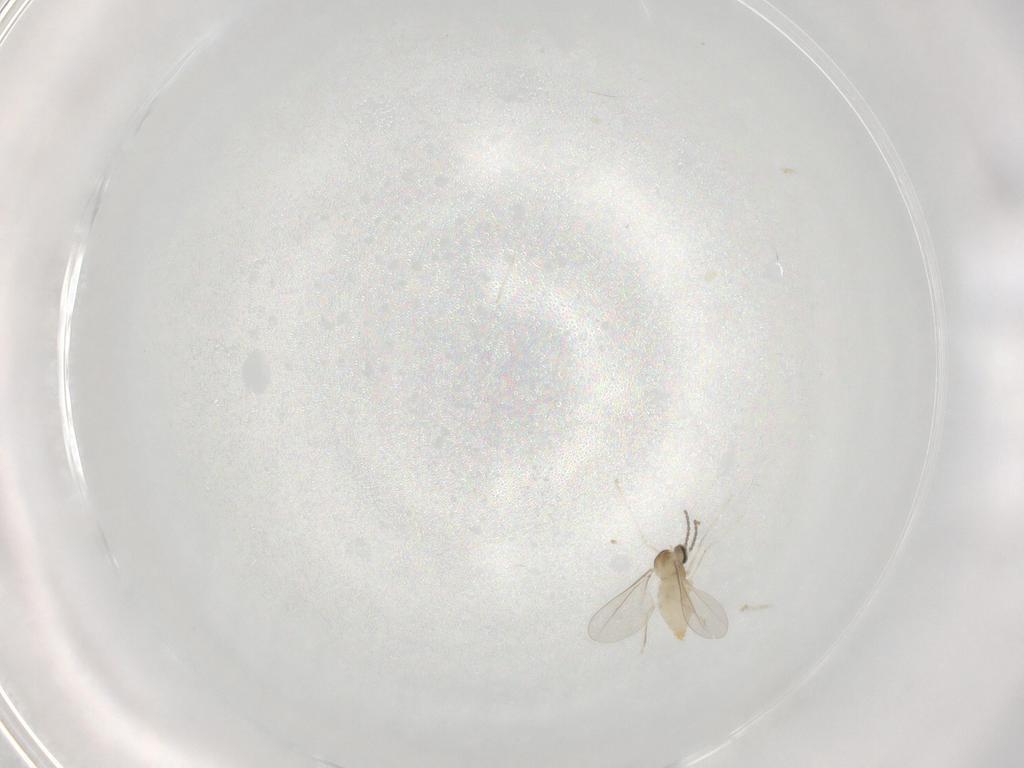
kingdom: Animalia
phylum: Arthropoda
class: Insecta
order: Diptera
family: Cecidomyiidae
